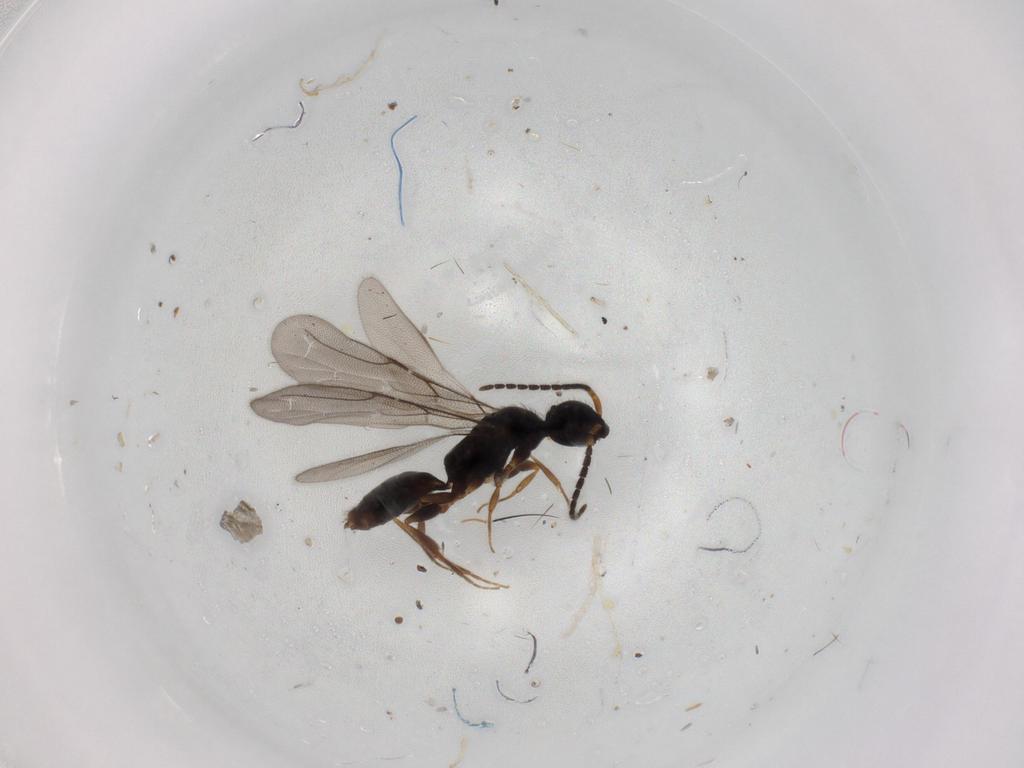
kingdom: Animalia
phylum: Arthropoda
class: Insecta
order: Hymenoptera
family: Bethylidae
